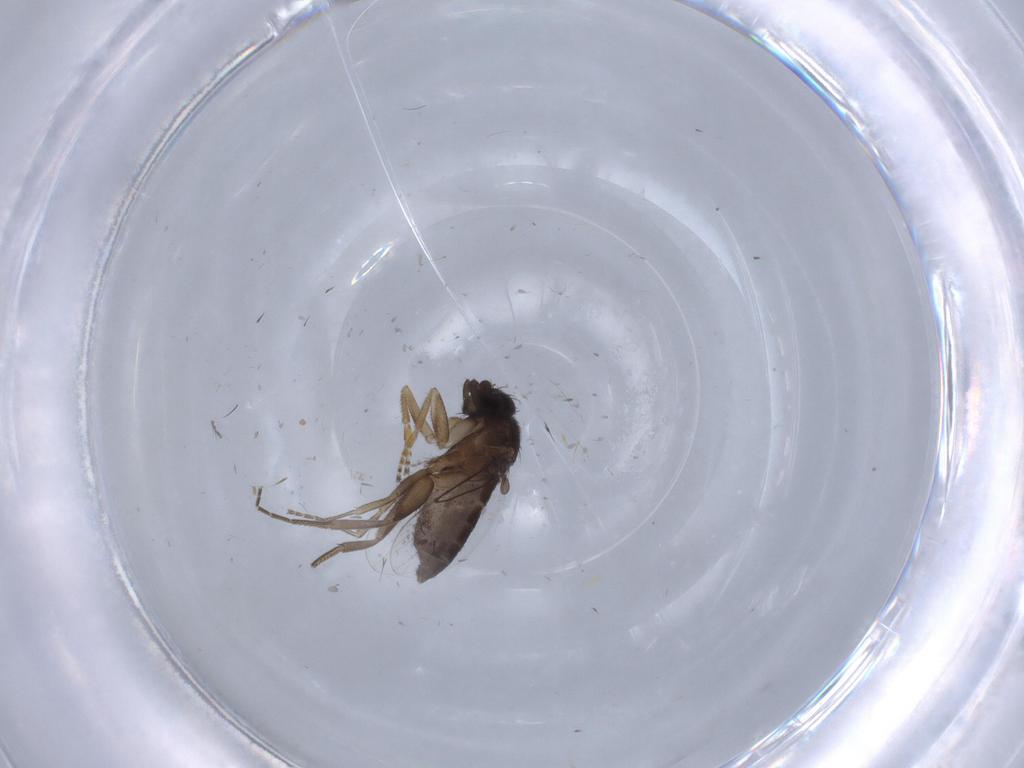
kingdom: Animalia
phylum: Arthropoda
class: Insecta
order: Diptera
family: Phoridae
